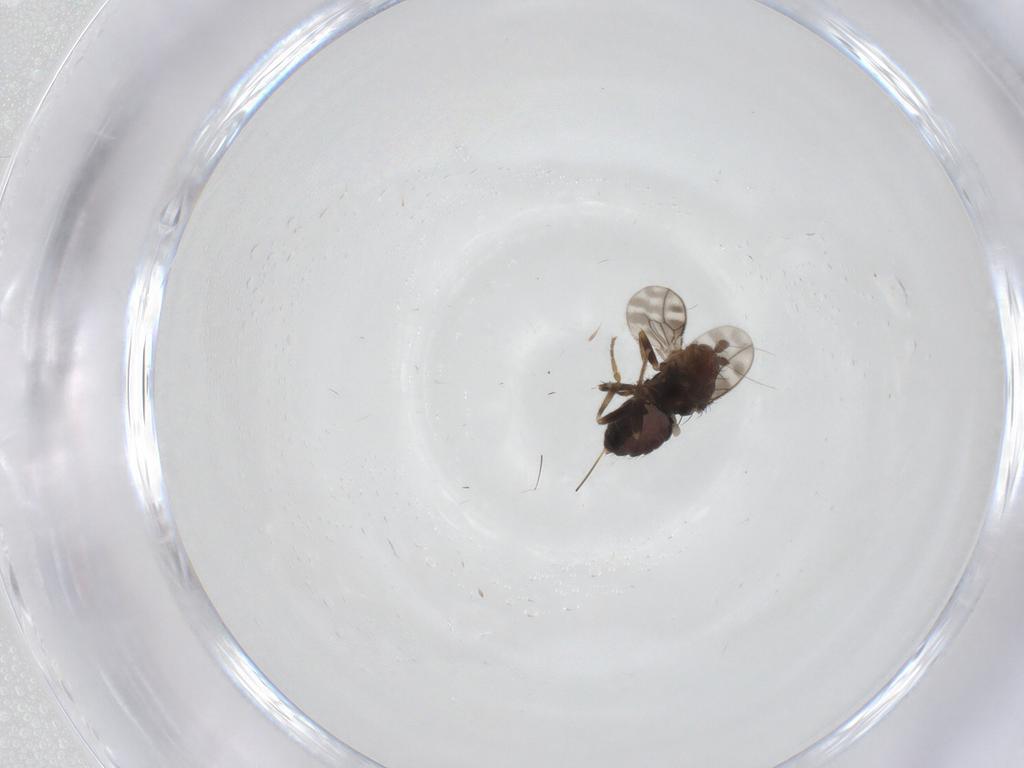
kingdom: Animalia
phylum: Arthropoda
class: Insecta
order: Diptera
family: Sphaeroceridae
